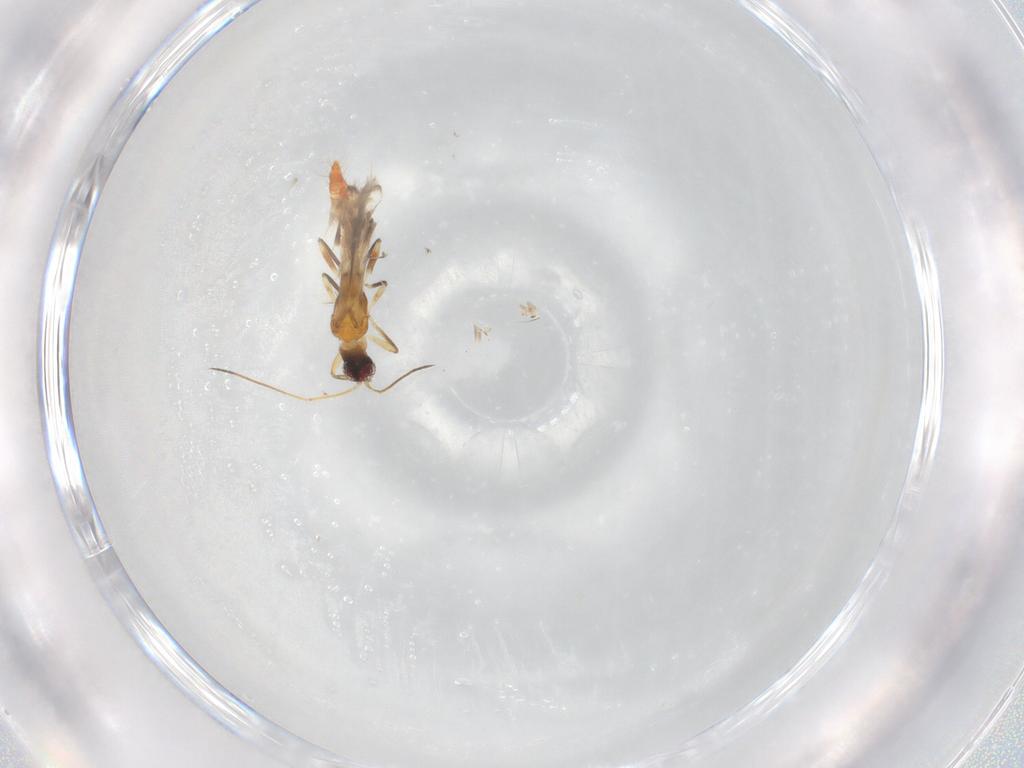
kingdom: Animalia
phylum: Arthropoda
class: Insecta
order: Thysanoptera
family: Aeolothripidae
